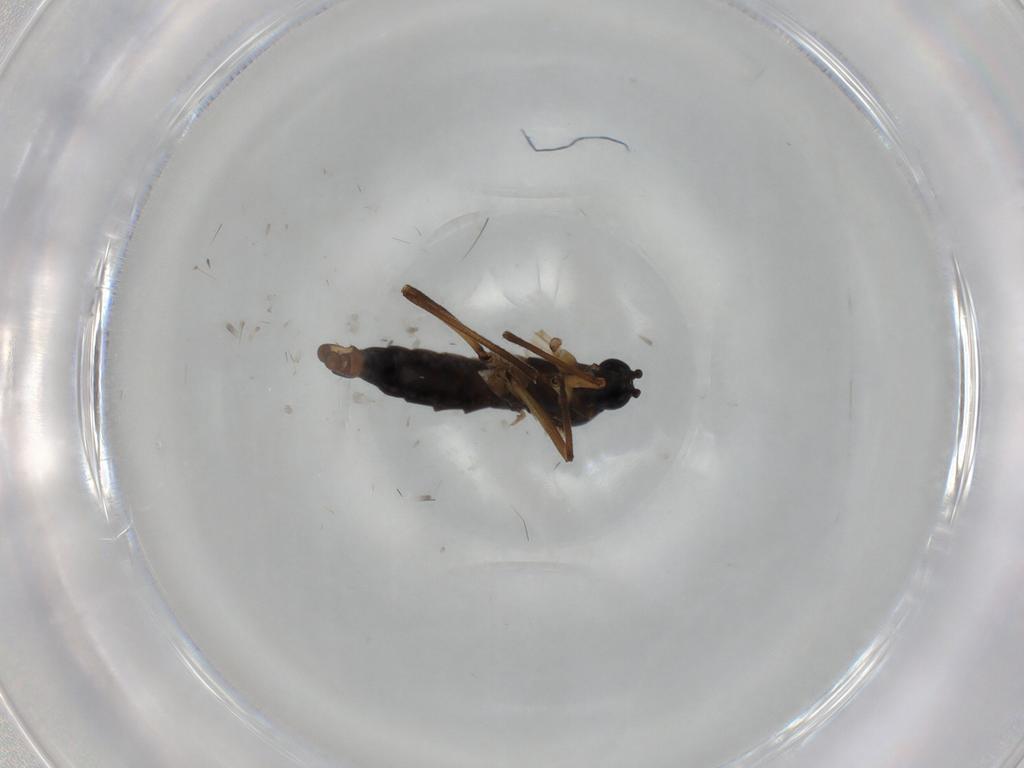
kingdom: Animalia
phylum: Arthropoda
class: Insecta
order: Diptera
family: Sciaridae
